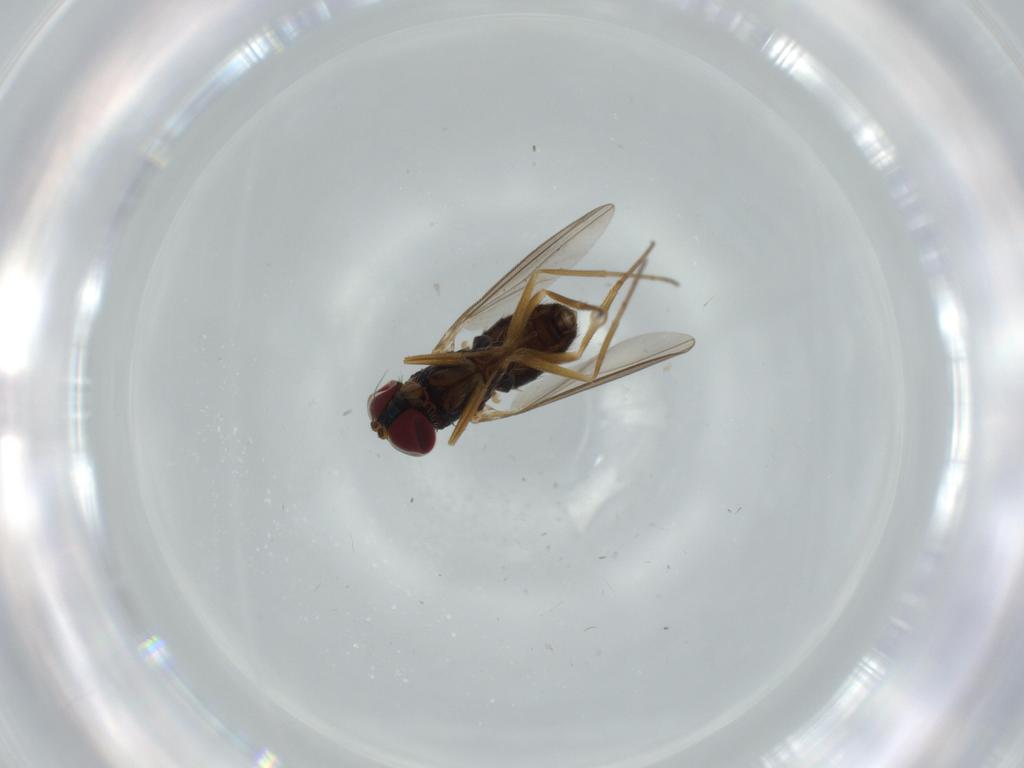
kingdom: Animalia
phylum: Arthropoda
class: Insecta
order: Diptera
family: Dolichopodidae
